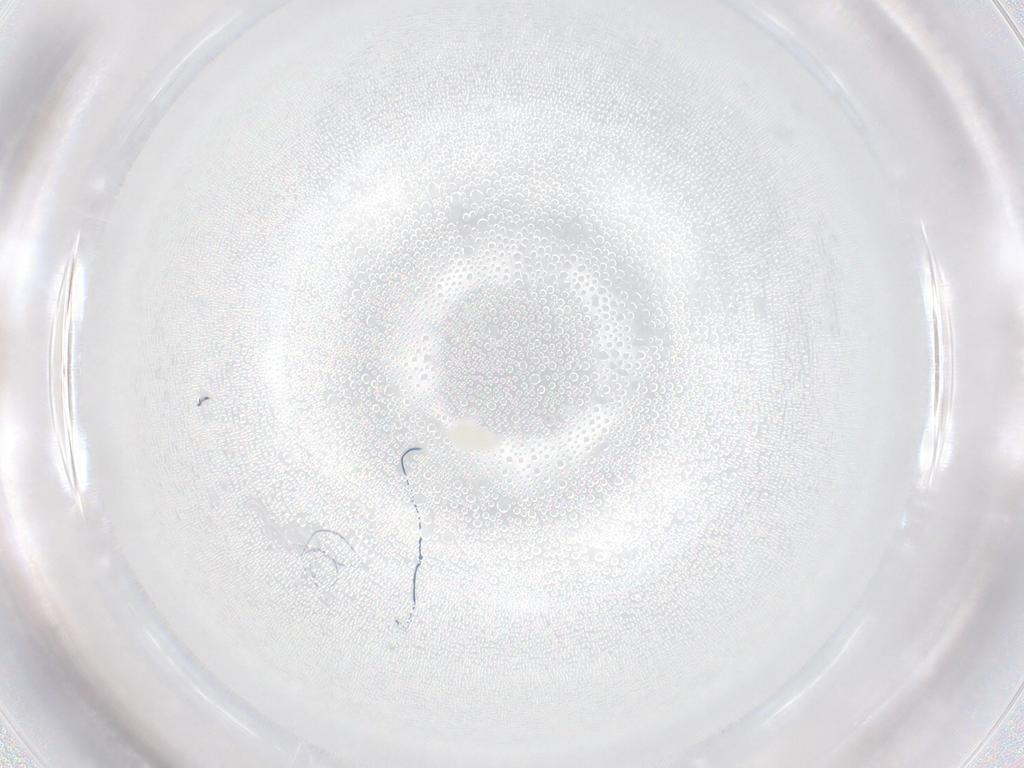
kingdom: Animalia
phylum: Arthropoda
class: Arachnida
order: Trombidiformes
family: Eupodidae
